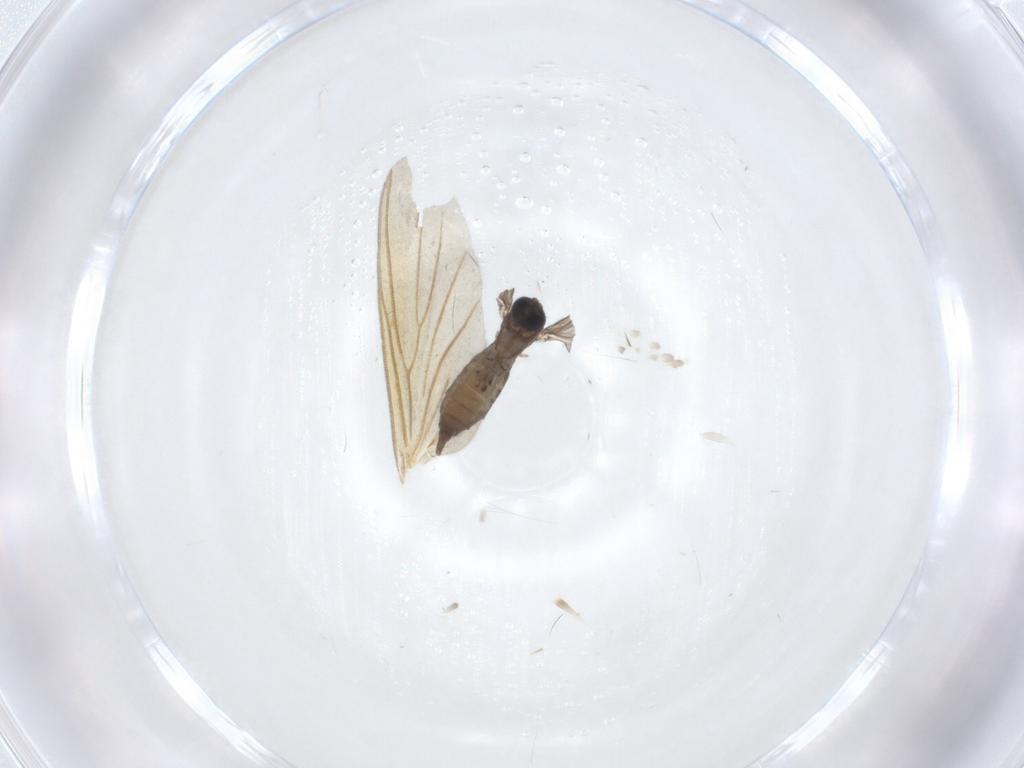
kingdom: Animalia
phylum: Arthropoda
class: Insecta
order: Diptera
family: Sciaridae
